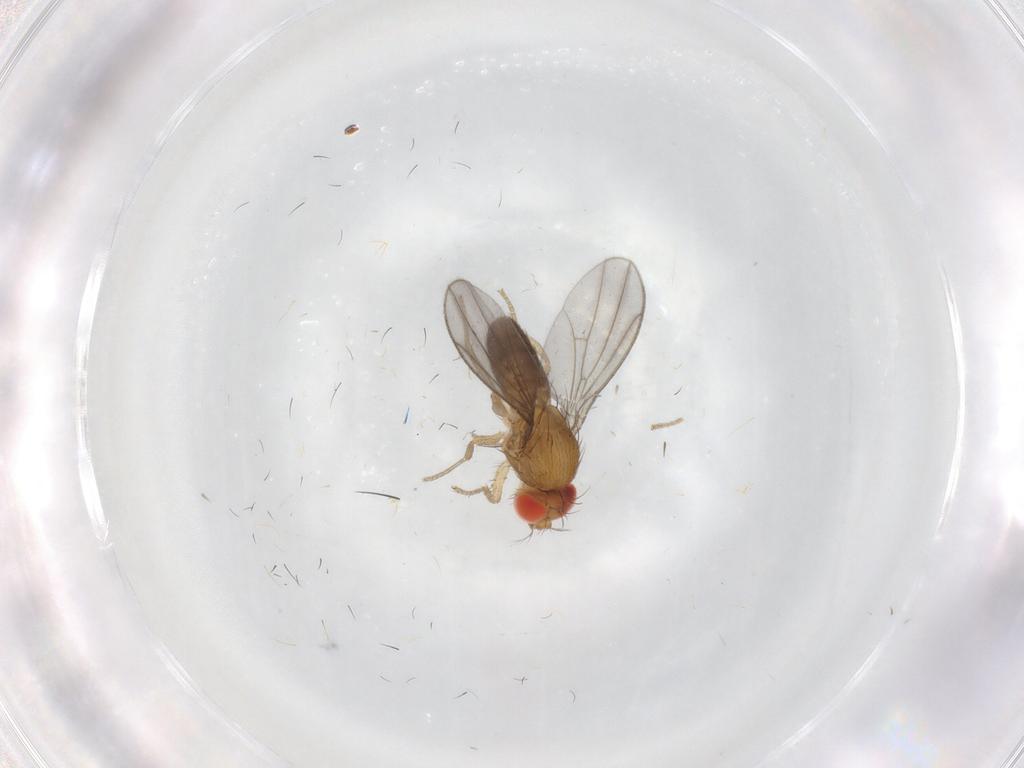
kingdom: Animalia
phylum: Arthropoda
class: Insecta
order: Diptera
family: Drosophilidae
